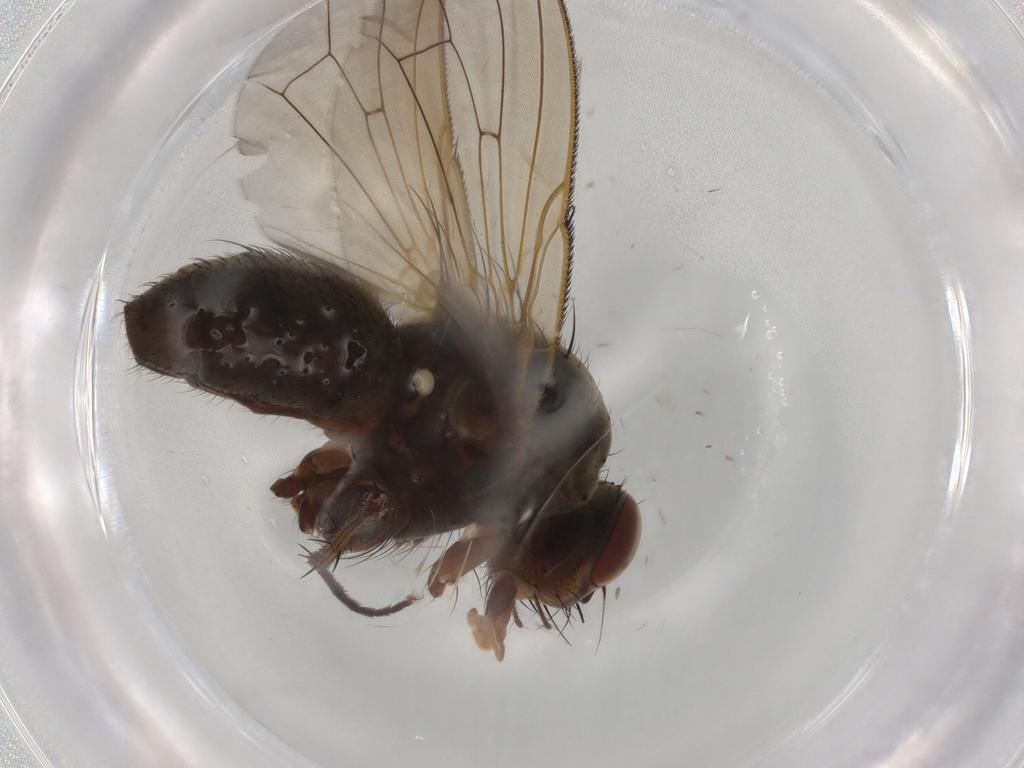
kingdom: Animalia
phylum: Arthropoda
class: Insecta
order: Diptera
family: Anthomyiidae
